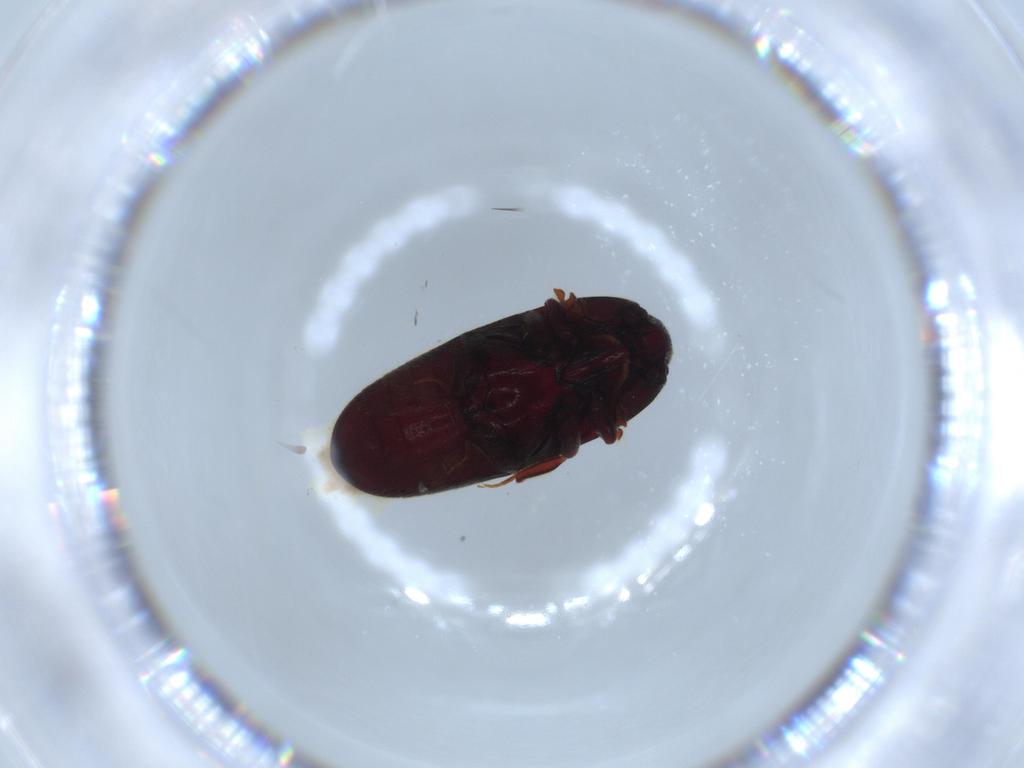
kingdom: Animalia
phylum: Arthropoda
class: Insecta
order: Coleoptera
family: Throscidae
